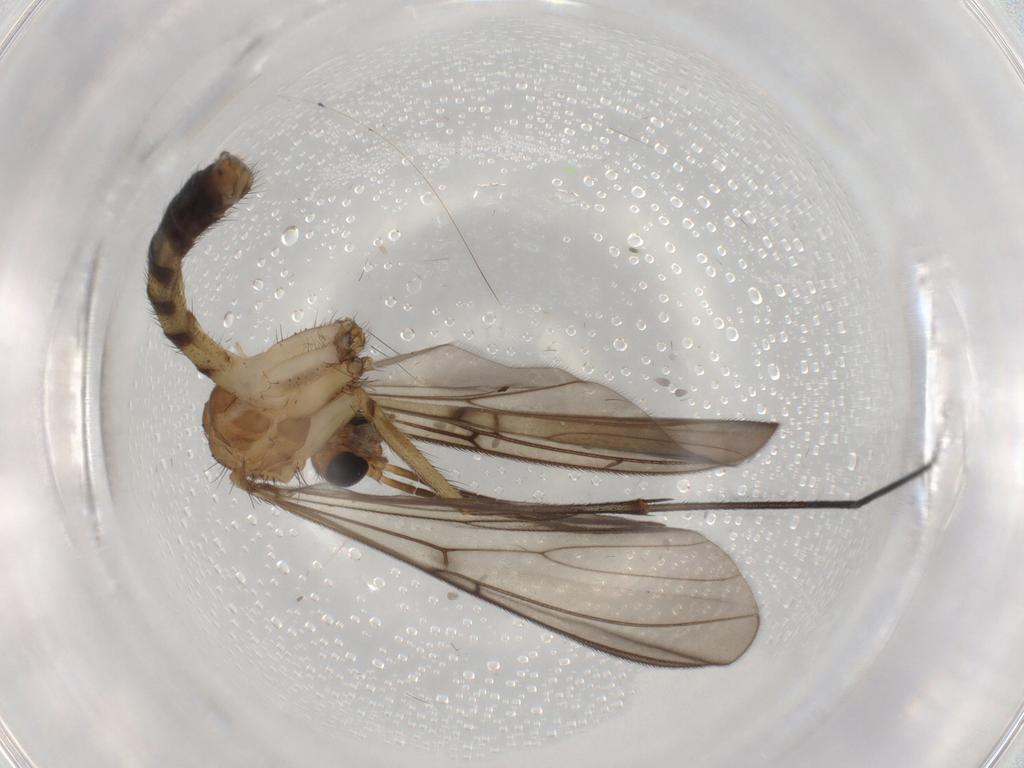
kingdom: Animalia
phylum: Arthropoda
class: Insecta
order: Diptera
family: Mycetophilidae
